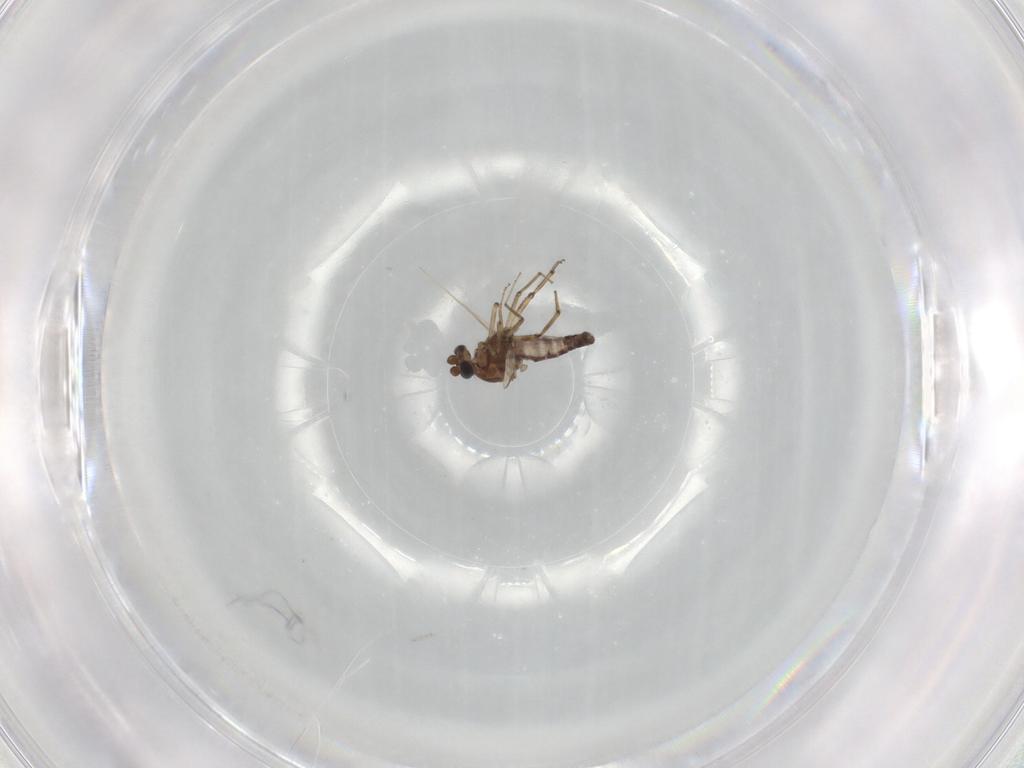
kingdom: Animalia
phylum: Arthropoda
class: Insecta
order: Diptera
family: Ceratopogonidae
